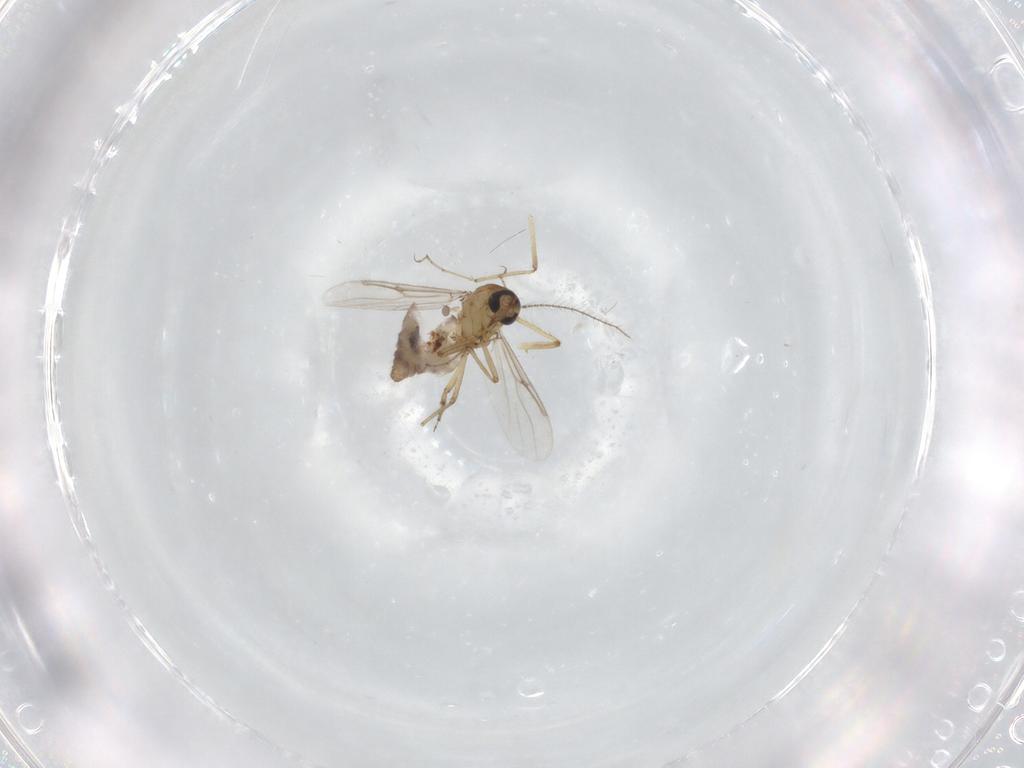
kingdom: Animalia
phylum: Arthropoda
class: Insecta
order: Diptera
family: Ceratopogonidae
